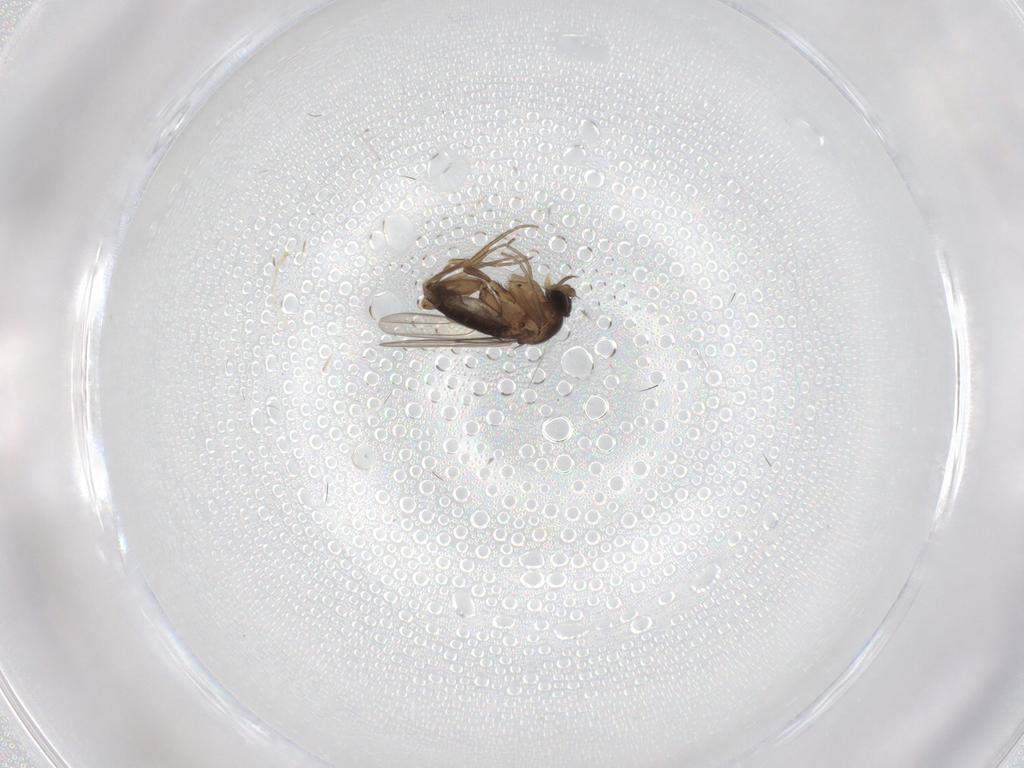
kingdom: Animalia
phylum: Arthropoda
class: Insecta
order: Diptera
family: Phoridae
